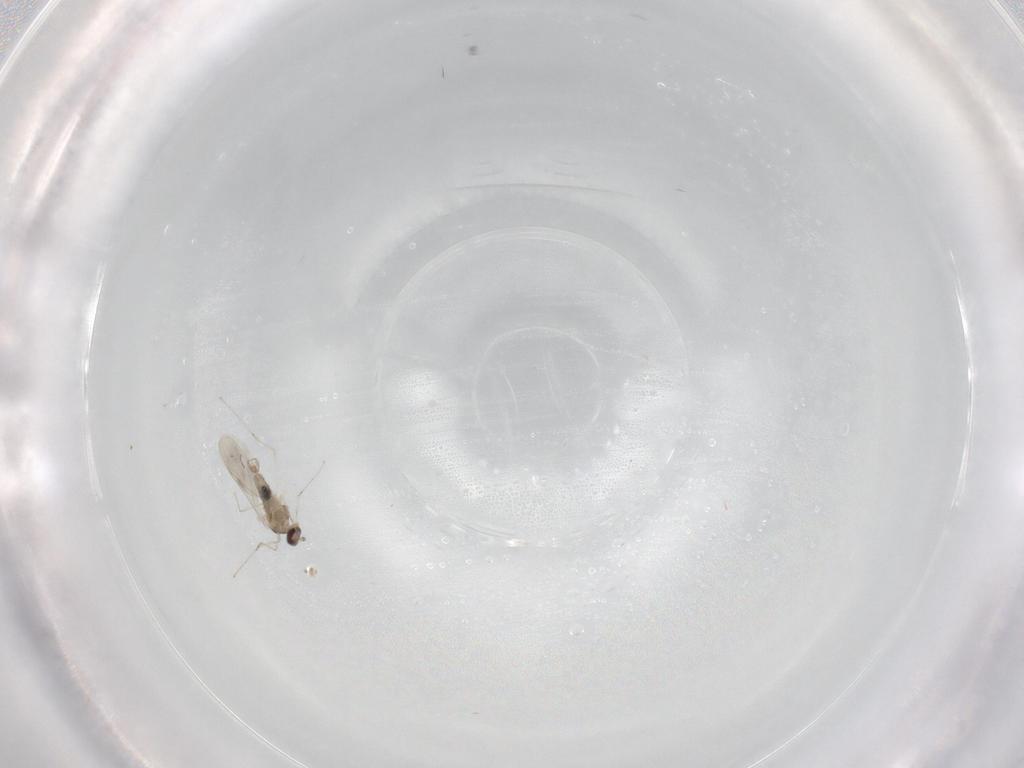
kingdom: Animalia
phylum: Arthropoda
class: Insecta
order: Diptera
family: Cecidomyiidae
